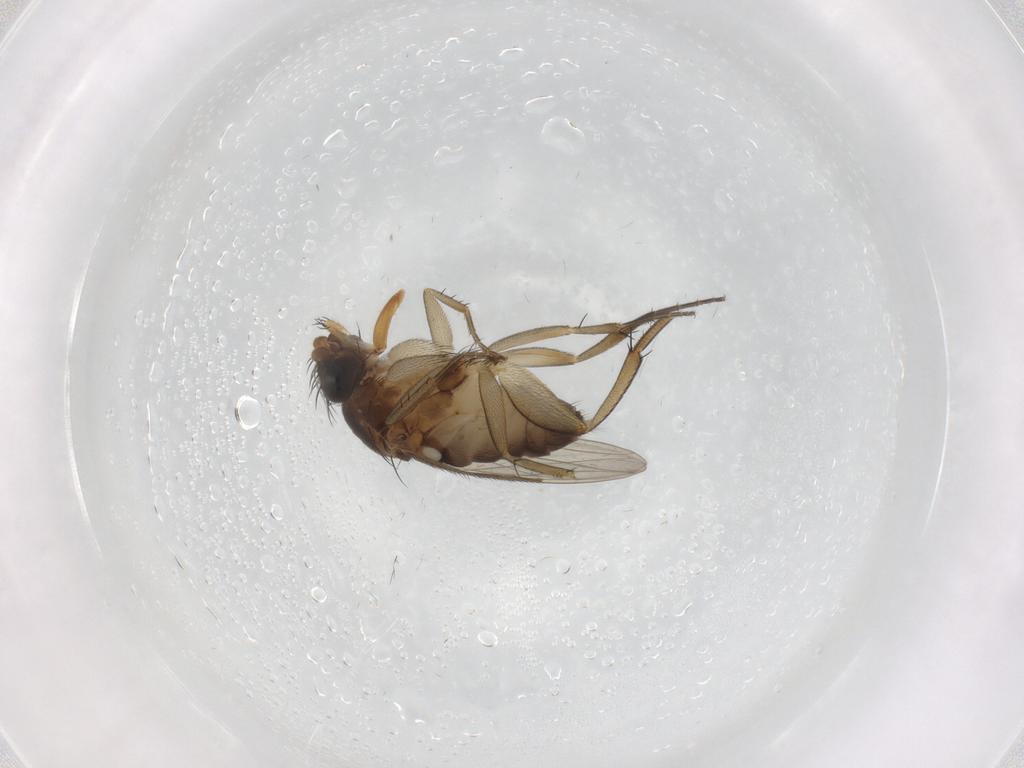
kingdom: Animalia
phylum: Arthropoda
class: Insecta
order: Diptera
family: Phoridae
